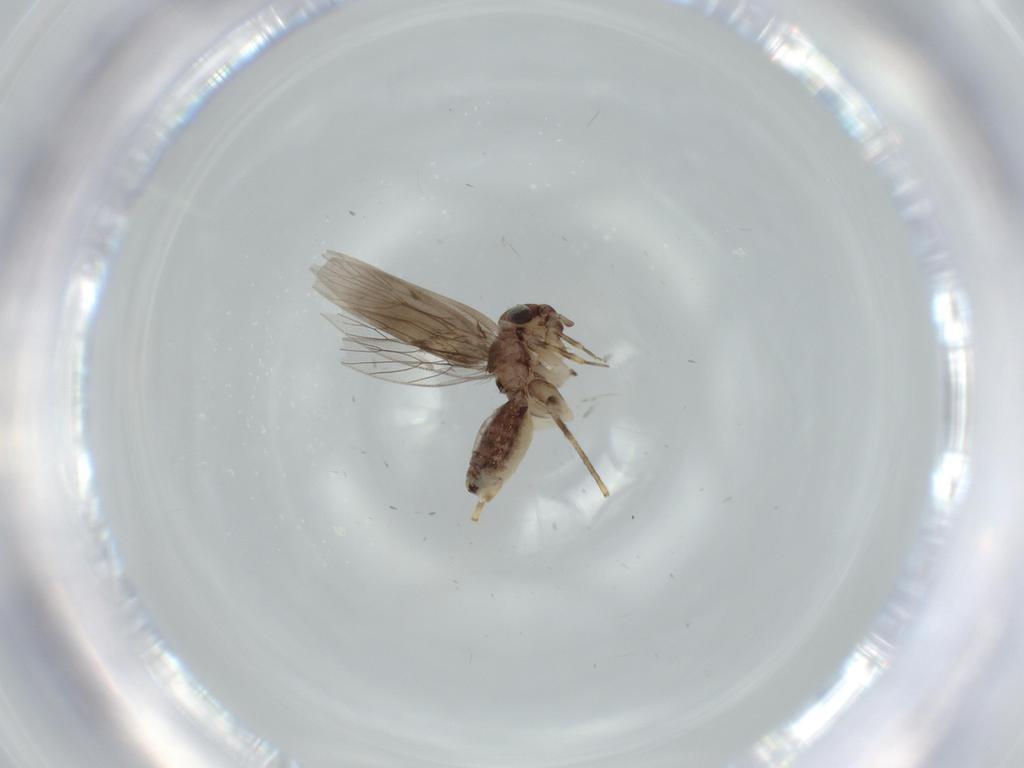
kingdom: Animalia
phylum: Arthropoda
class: Insecta
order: Psocodea
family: Lepidopsocidae
